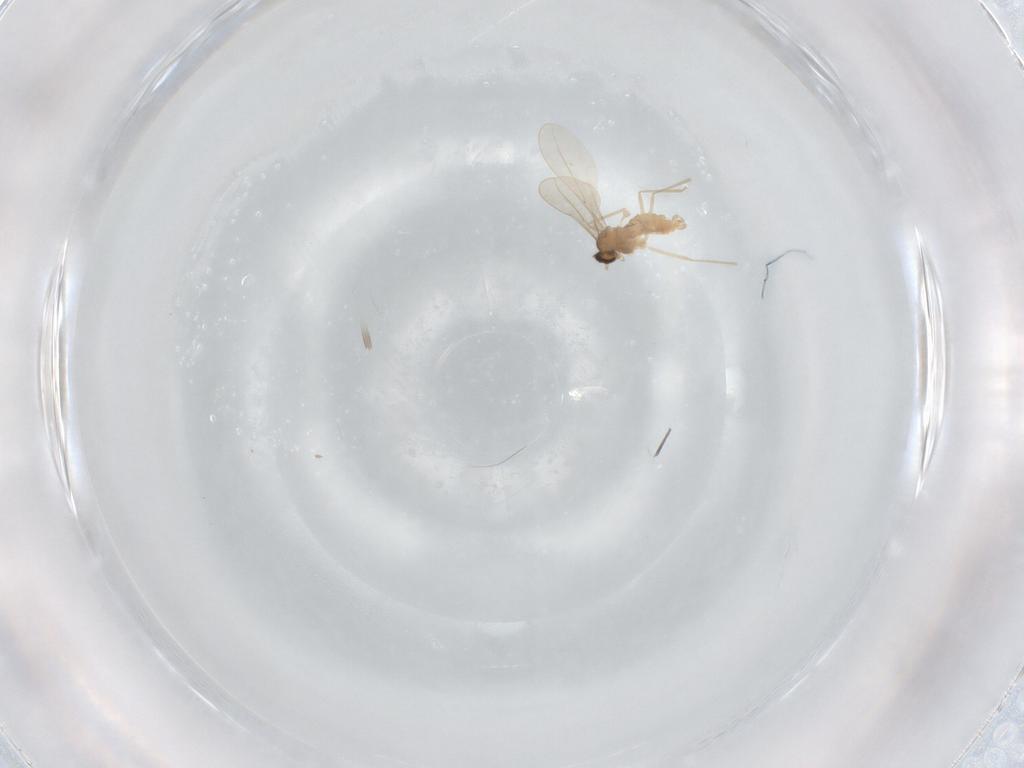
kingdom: Animalia
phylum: Arthropoda
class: Insecta
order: Diptera
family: Cecidomyiidae
